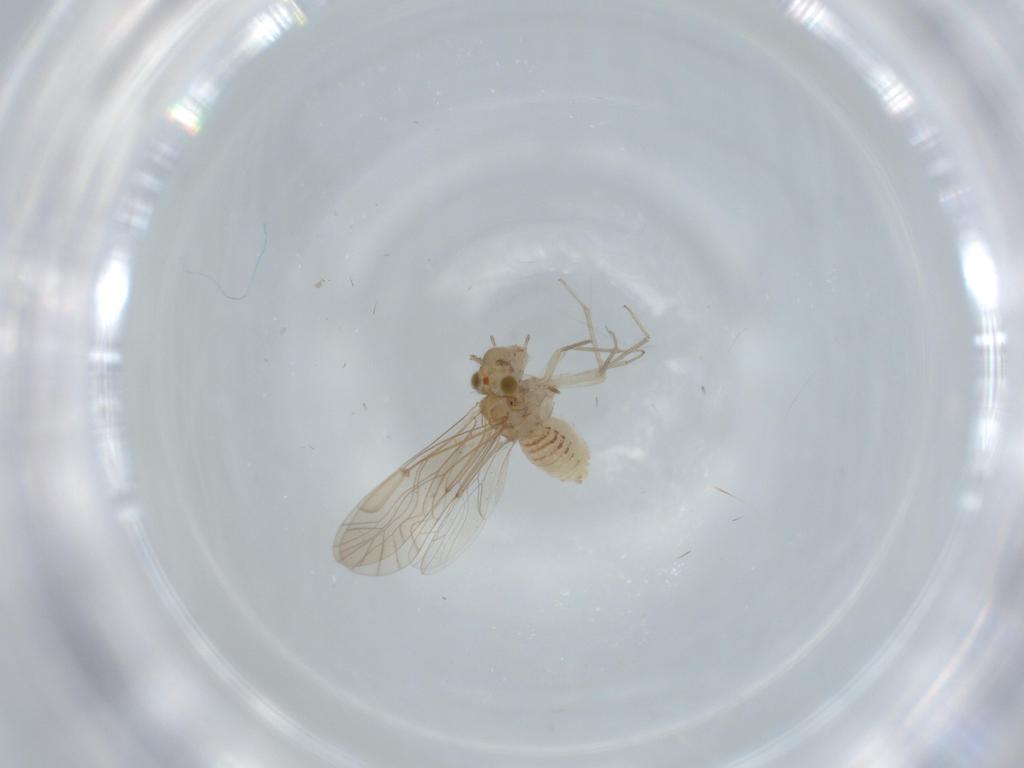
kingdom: Animalia
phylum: Arthropoda
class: Insecta
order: Psocodea
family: Lachesillidae
